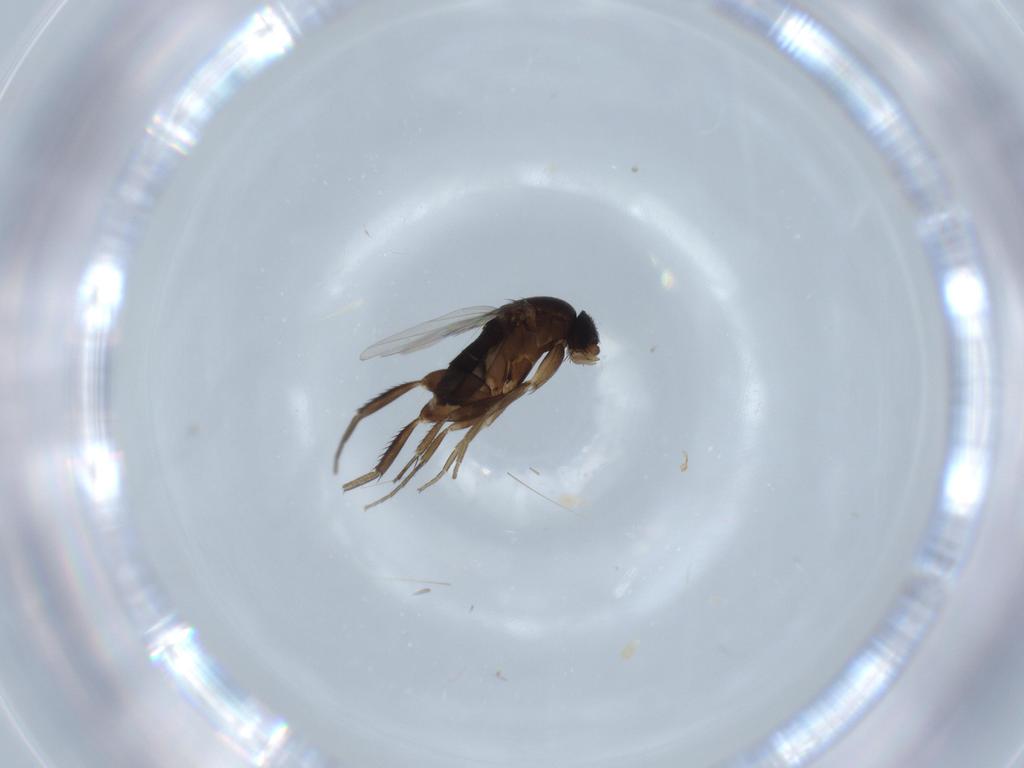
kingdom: Animalia
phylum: Arthropoda
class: Insecta
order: Diptera
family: Phoridae
